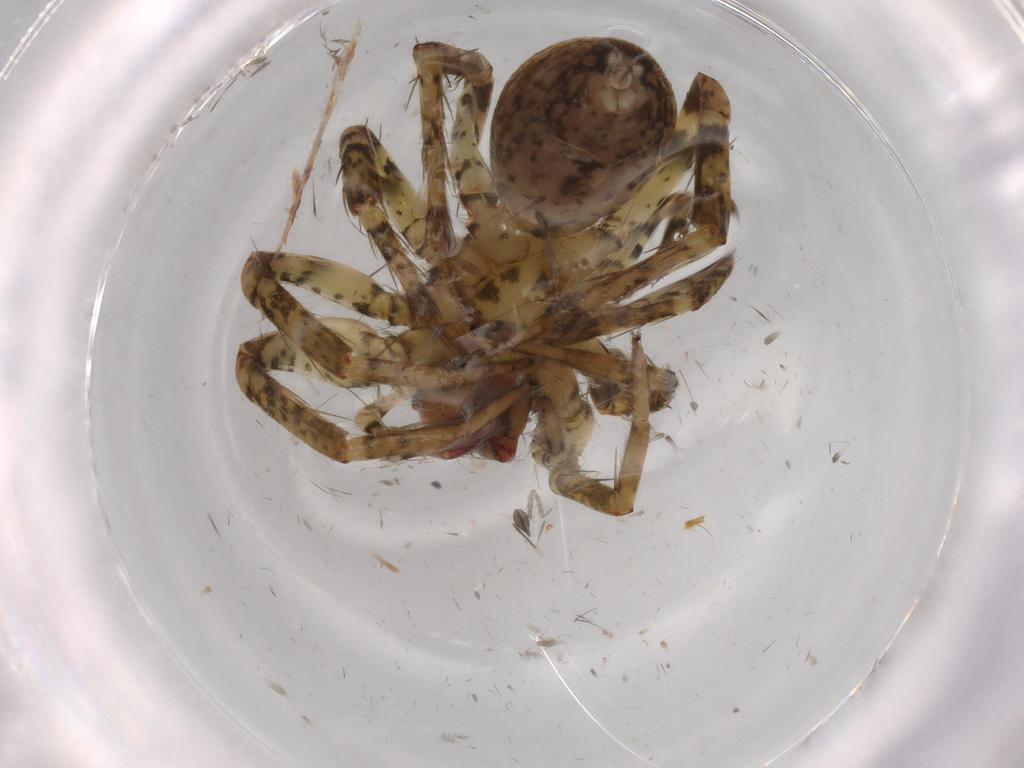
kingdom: Animalia
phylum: Arthropoda
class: Arachnida
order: Araneae
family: Anyphaenidae
